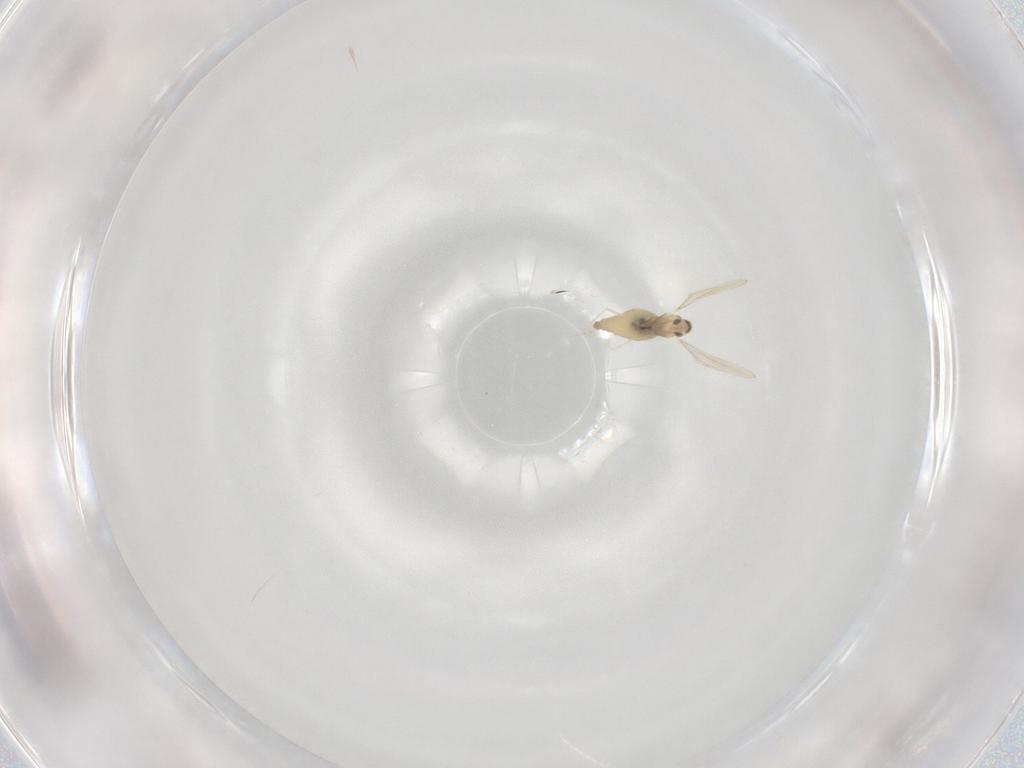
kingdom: Animalia
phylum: Arthropoda
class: Insecta
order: Diptera
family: Cecidomyiidae
